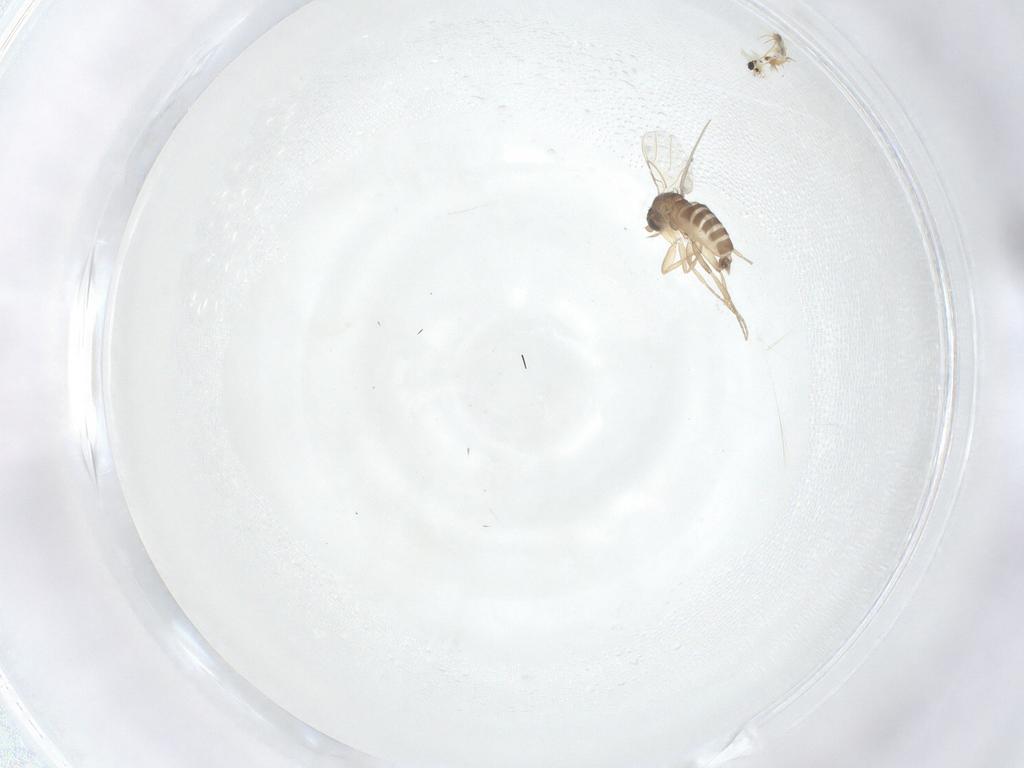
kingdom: Animalia
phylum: Arthropoda
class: Insecta
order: Diptera
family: Phoridae
